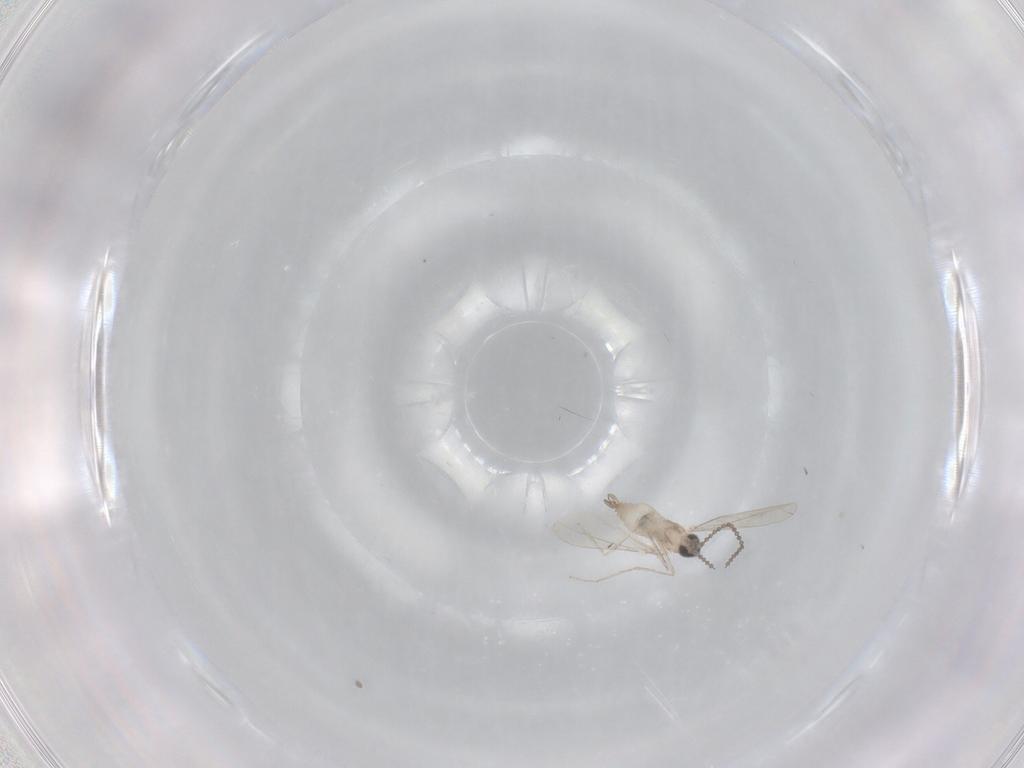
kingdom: Animalia
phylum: Arthropoda
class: Insecta
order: Diptera
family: Cecidomyiidae
